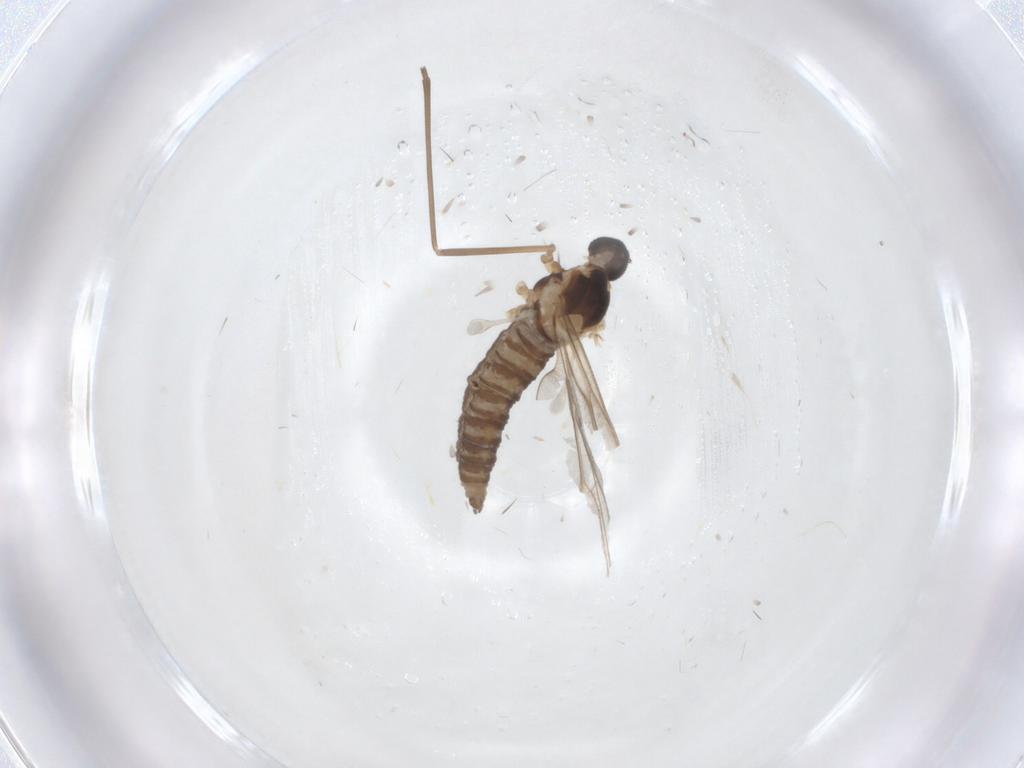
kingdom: Animalia
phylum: Arthropoda
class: Insecta
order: Diptera
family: Cecidomyiidae
